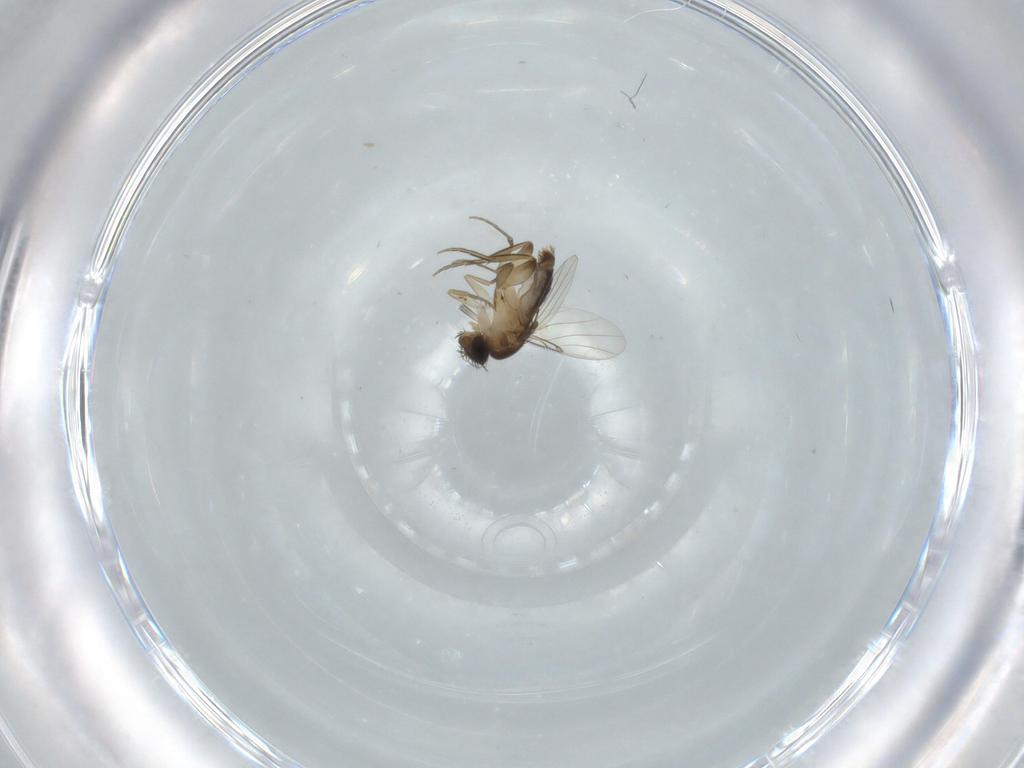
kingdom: Animalia
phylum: Arthropoda
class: Insecta
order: Diptera
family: Cecidomyiidae
